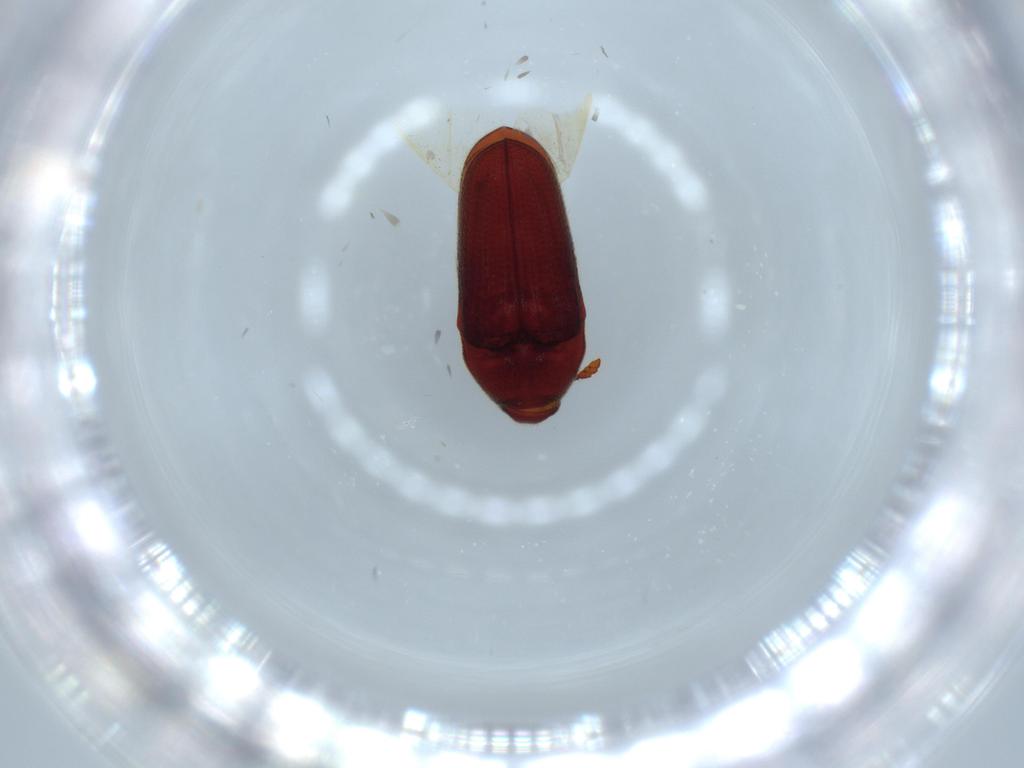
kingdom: Animalia
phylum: Arthropoda
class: Insecta
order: Coleoptera
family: Throscidae
